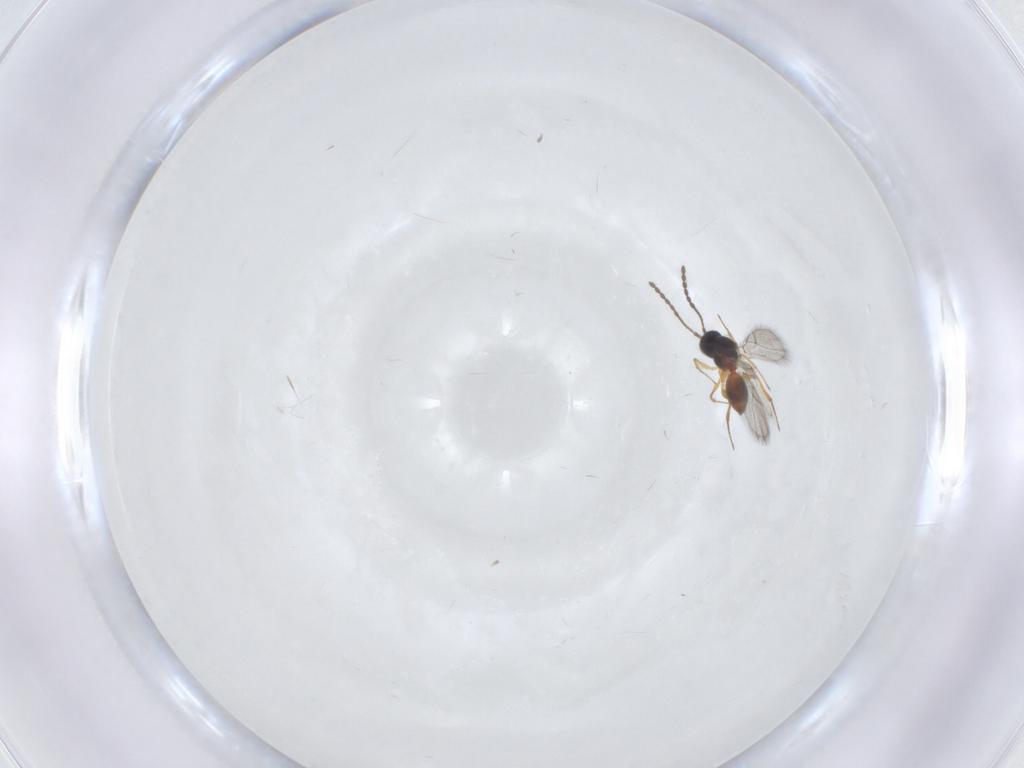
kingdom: Animalia
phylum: Arthropoda
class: Insecta
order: Hymenoptera
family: Figitidae
